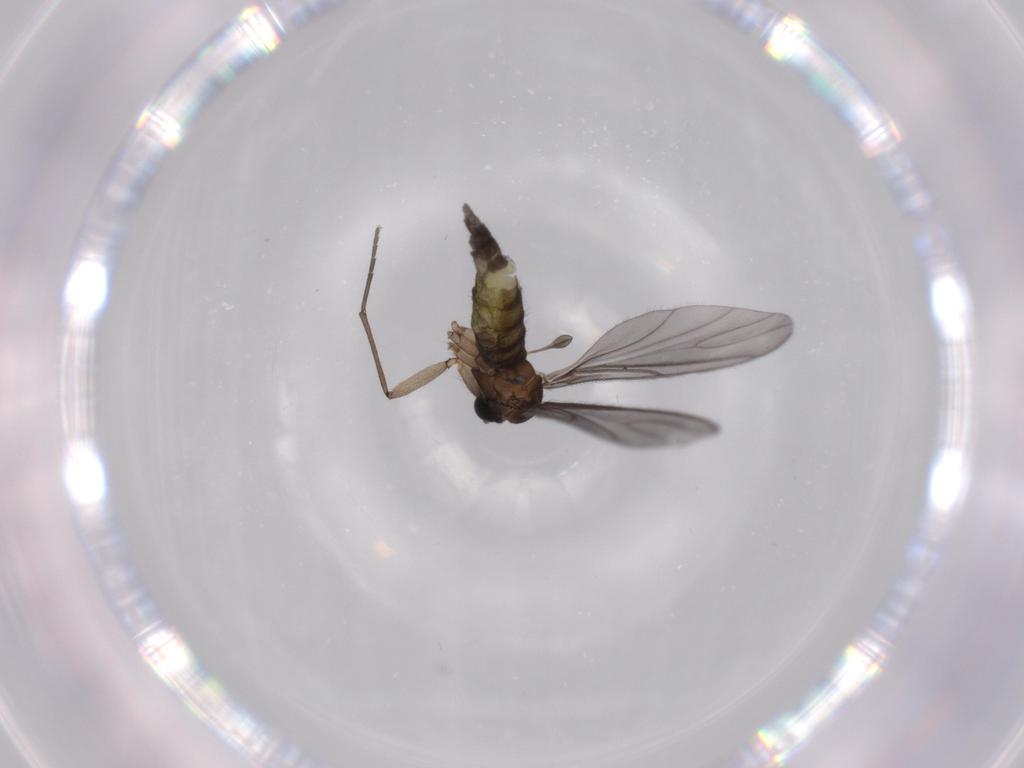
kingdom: Animalia
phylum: Arthropoda
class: Insecta
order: Diptera
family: Sciaridae
